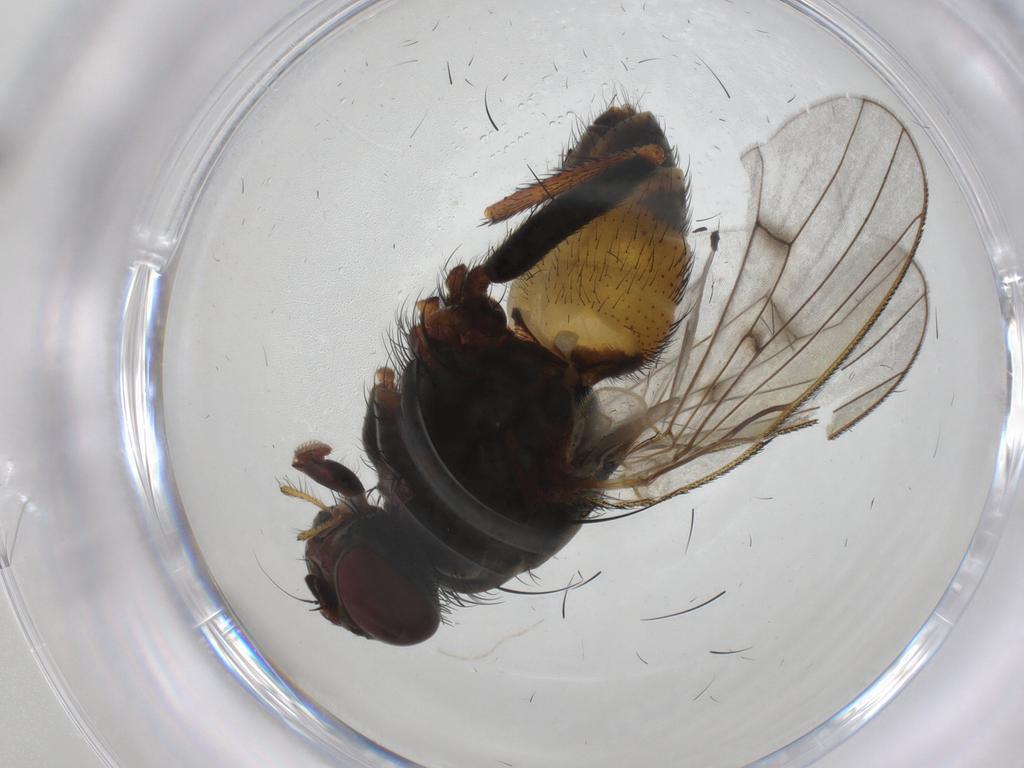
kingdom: Animalia
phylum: Arthropoda
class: Insecta
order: Diptera
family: Muscidae
